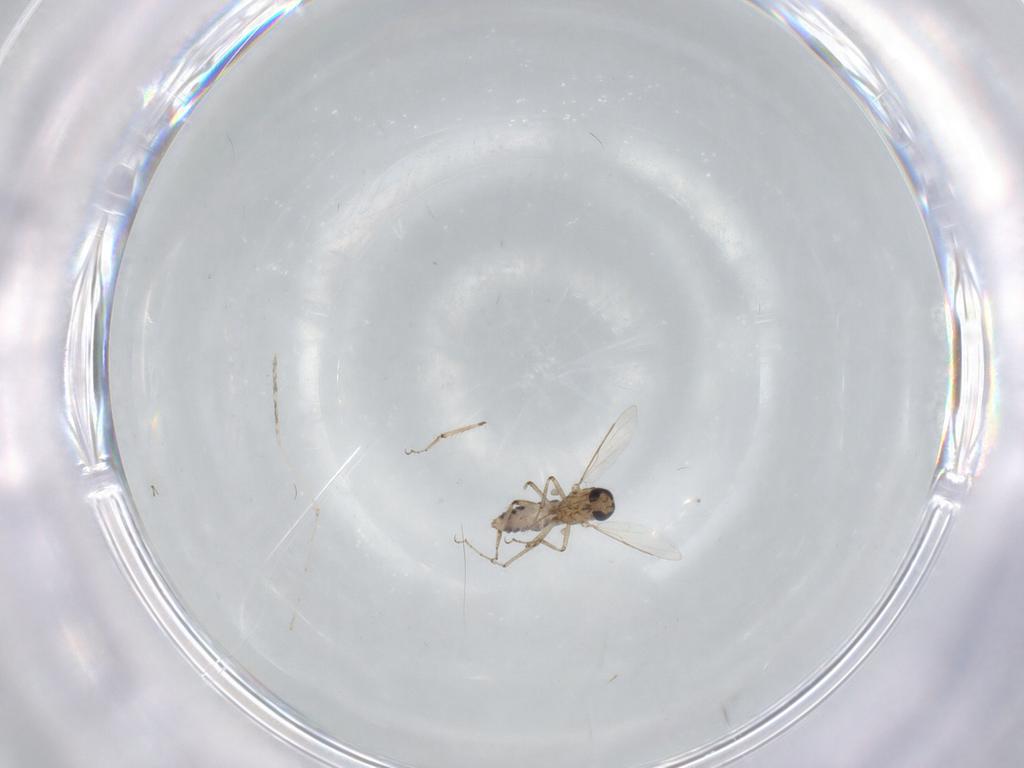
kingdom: Animalia
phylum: Arthropoda
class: Insecta
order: Diptera
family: Ceratopogonidae
